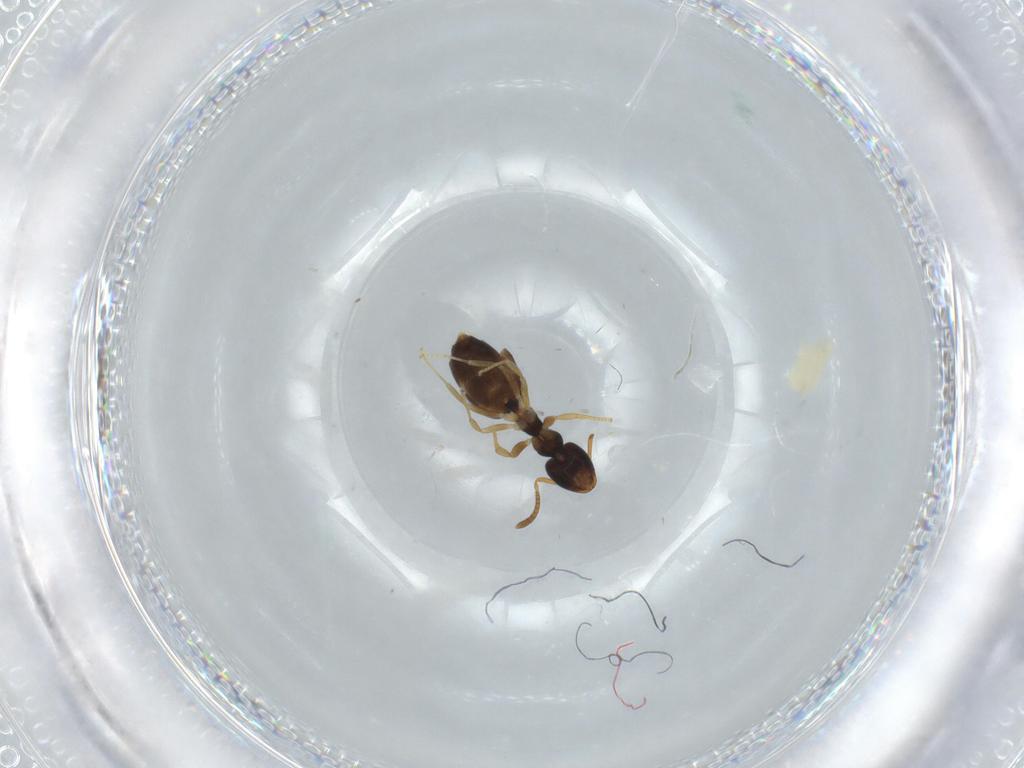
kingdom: Animalia
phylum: Arthropoda
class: Insecta
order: Hymenoptera
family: Formicidae
